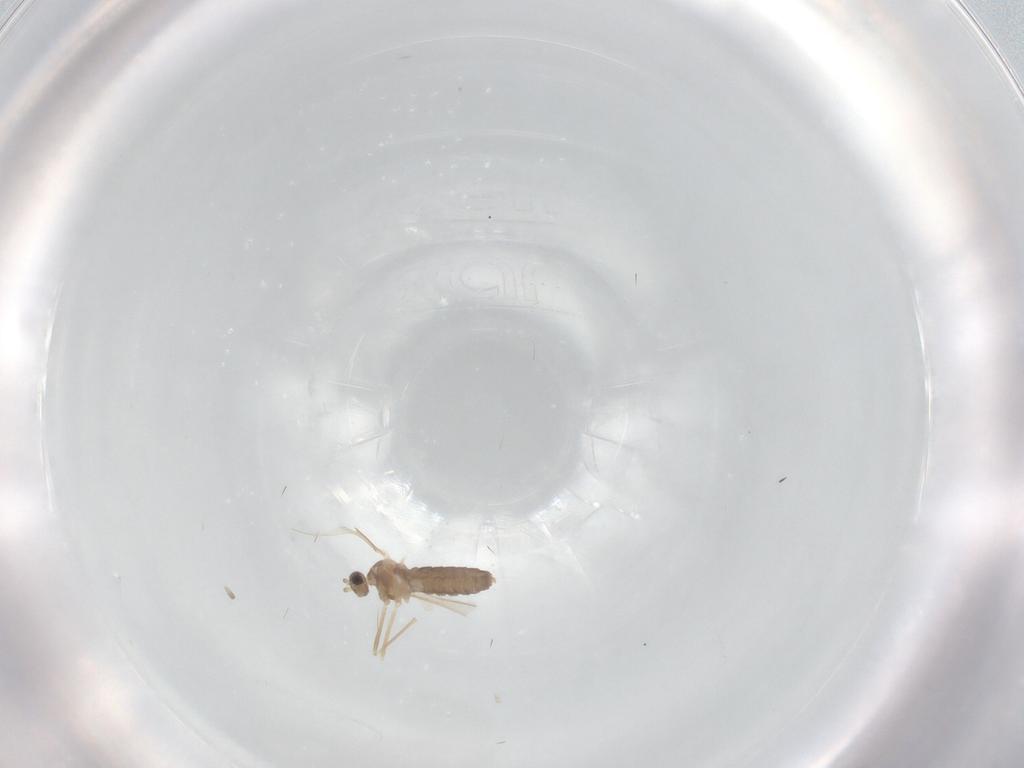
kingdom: Animalia
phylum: Arthropoda
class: Insecta
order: Diptera
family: Cecidomyiidae
